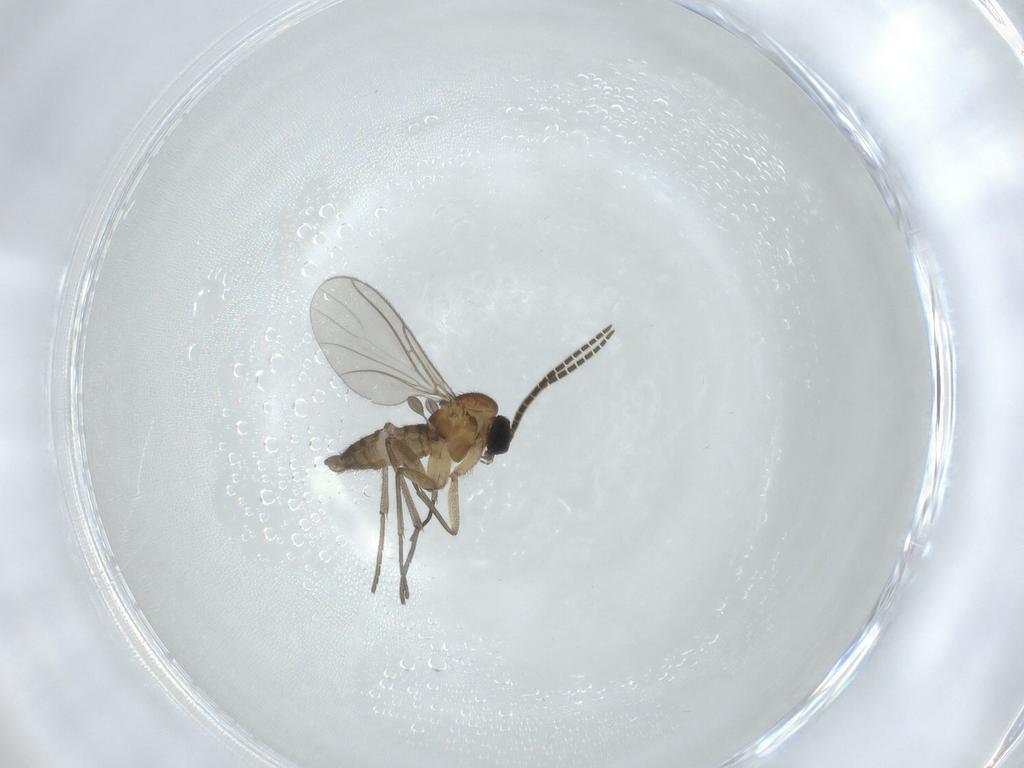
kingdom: Animalia
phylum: Arthropoda
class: Insecta
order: Diptera
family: Sciaridae
